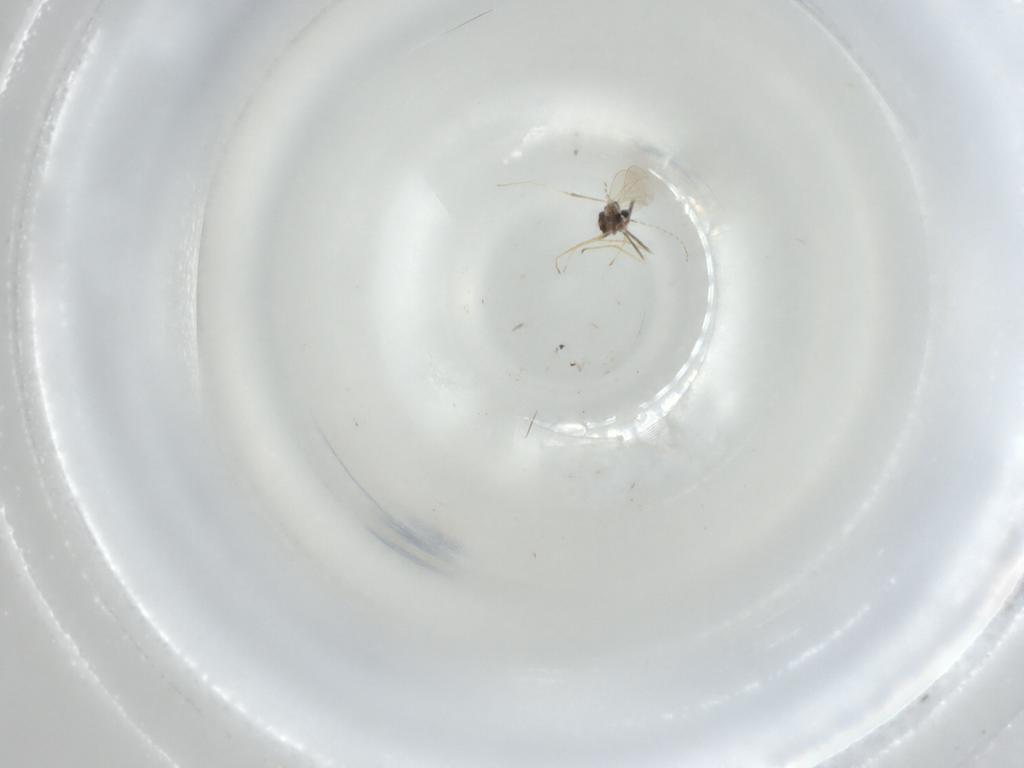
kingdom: Animalia
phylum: Arthropoda
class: Insecta
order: Diptera
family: Cecidomyiidae
